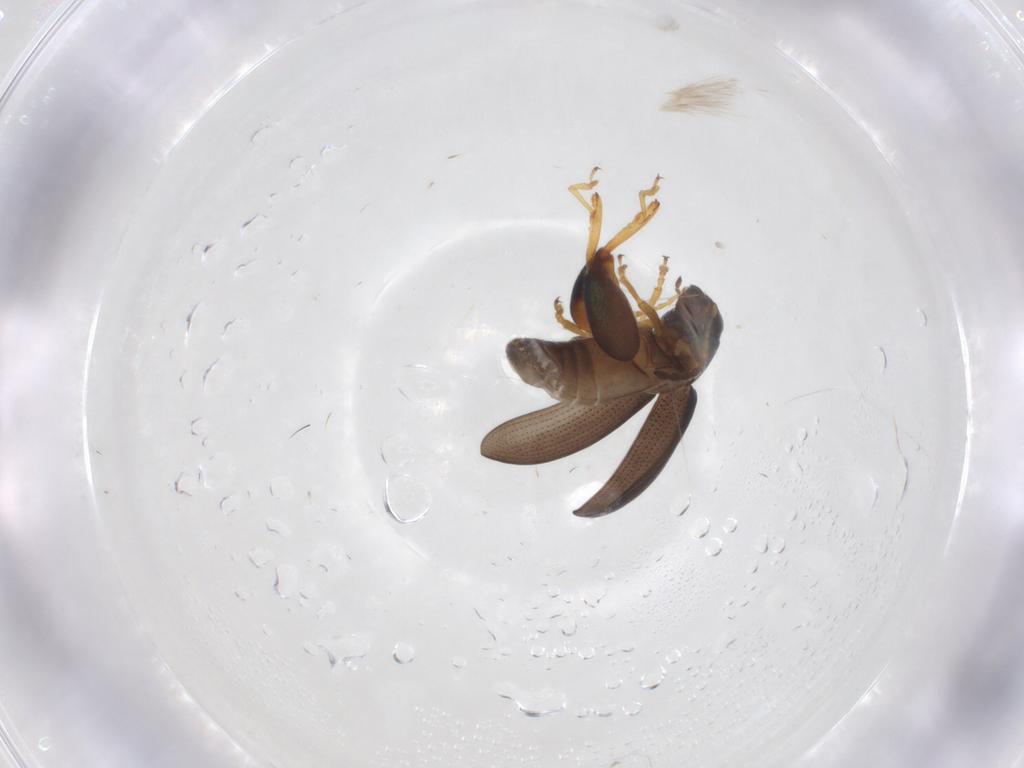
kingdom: Animalia
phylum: Arthropoda
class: Insecta
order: Coleoptera
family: Chrysomelidae
